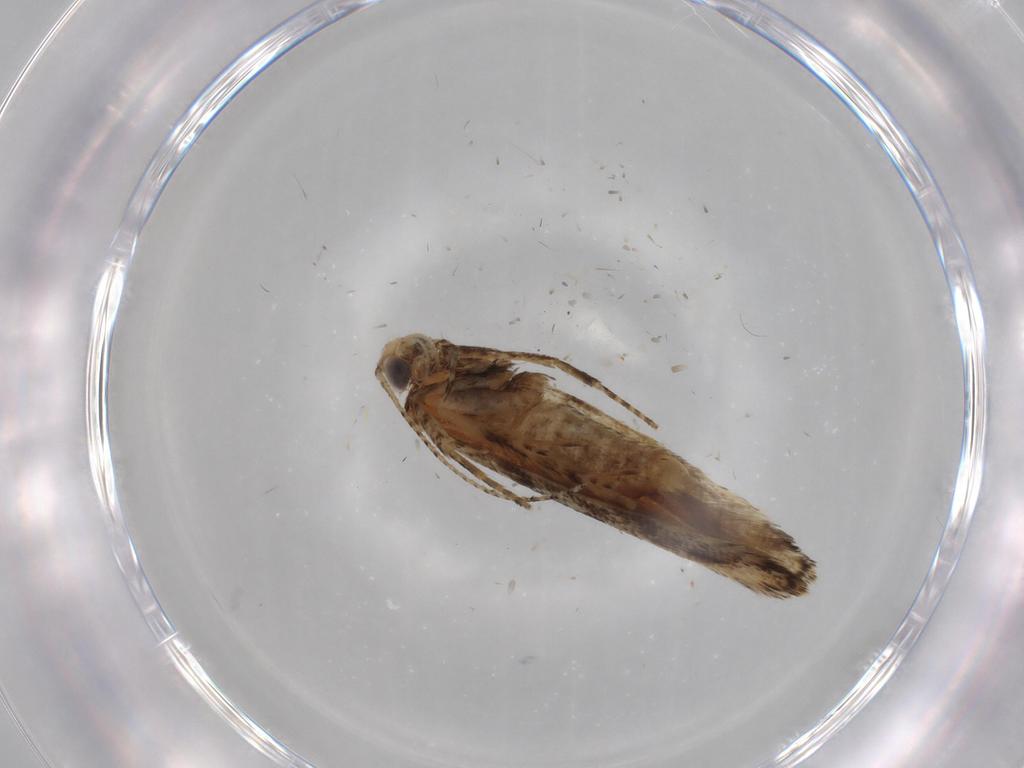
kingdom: Animalia
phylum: Arthropoda
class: Insecta
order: Lepidoptera
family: Gelechiidae
